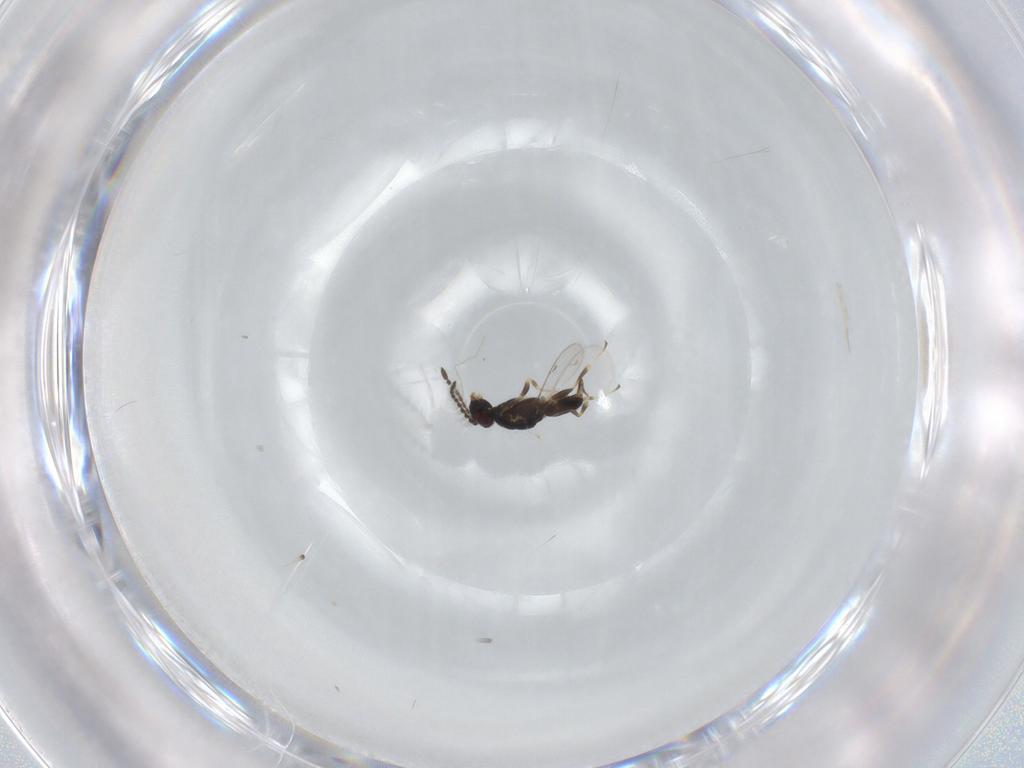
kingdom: Animalia
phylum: Arthropoda
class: Insecta
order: Hymenoptera
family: Eupelmidae
